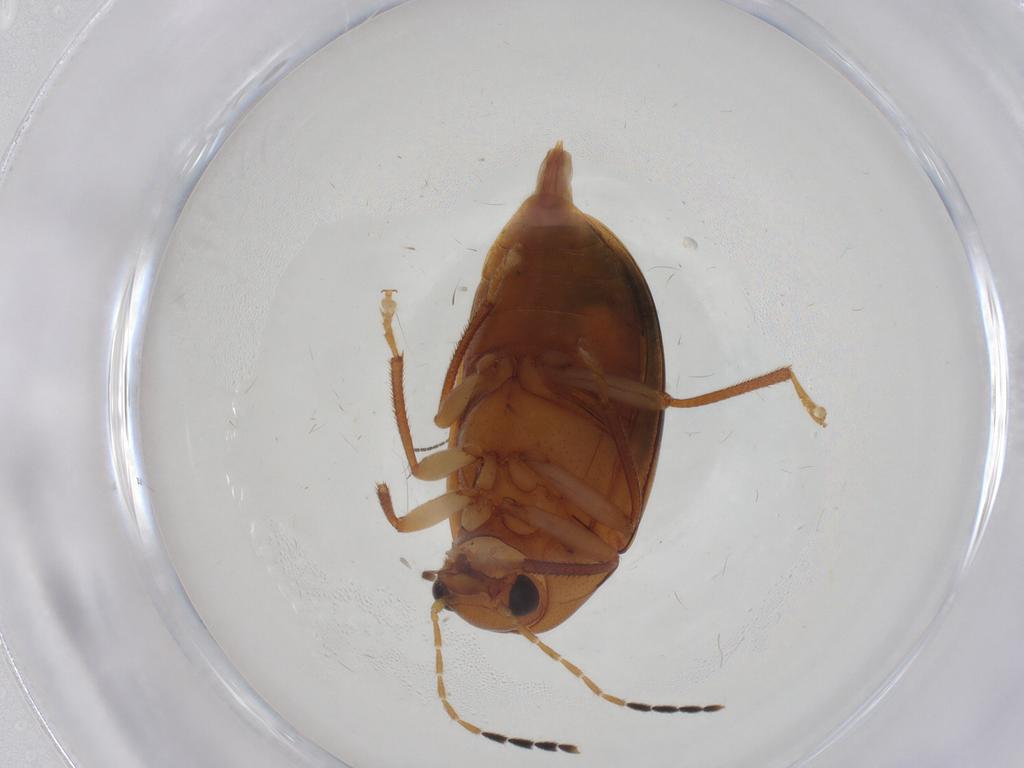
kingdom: Animalia
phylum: Arthropoda
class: Insecta
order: Coleoptera
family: Ptilodactylidae
